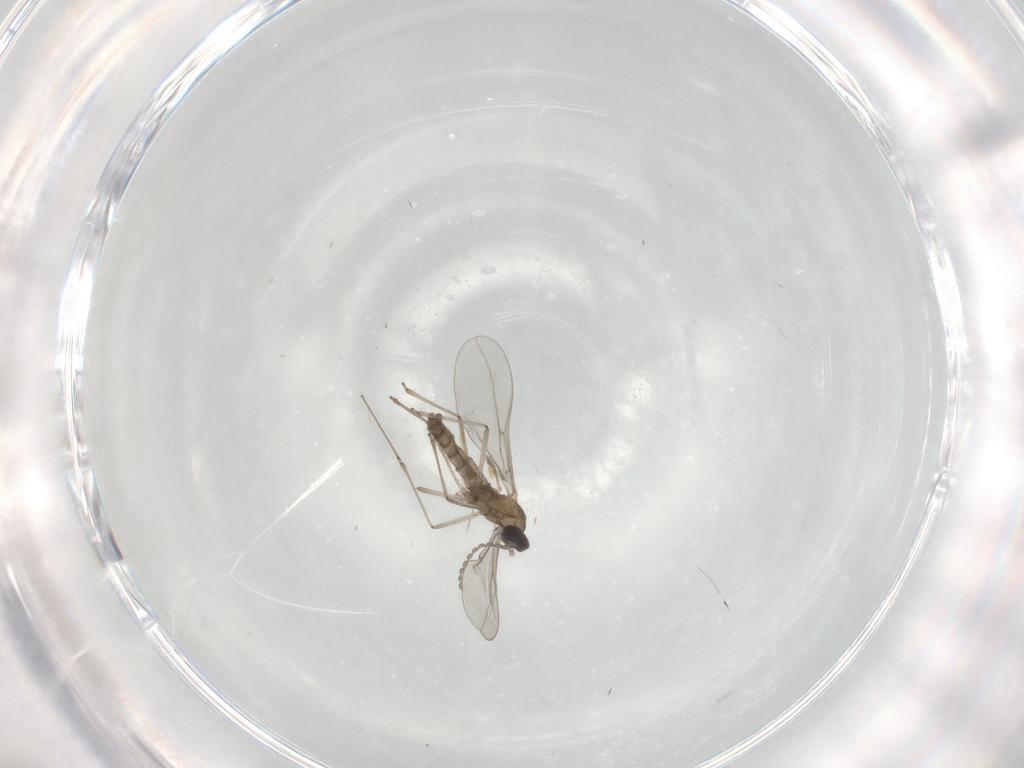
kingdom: Animalia
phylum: Arthropoda
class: Insecta
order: Diptera
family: Cecidomyiidae
